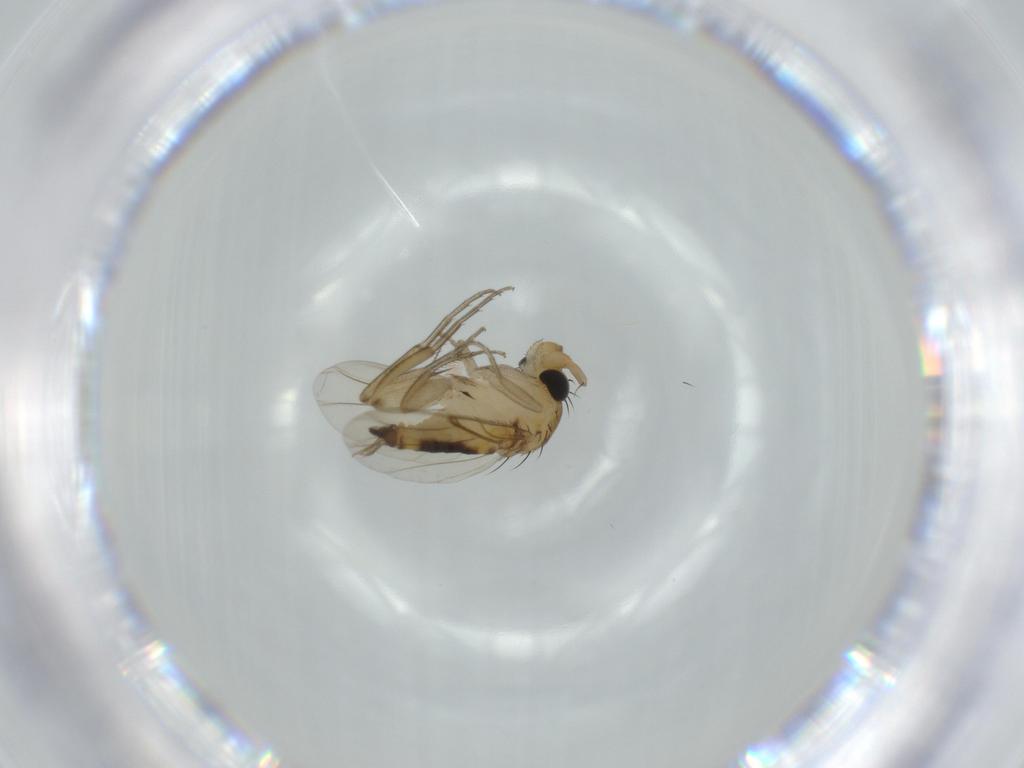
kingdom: Animalia
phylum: Arthropoda
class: Insecta
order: Diptera
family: Phoridae
